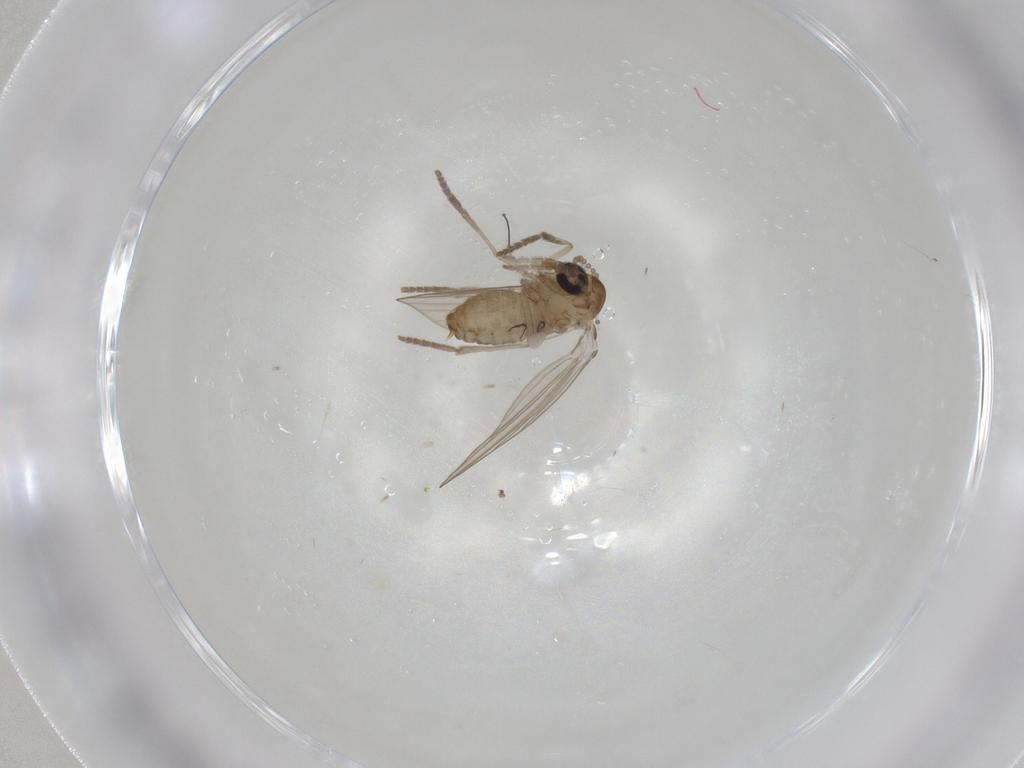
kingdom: Animalia
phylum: Arthropoda
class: Insecta
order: Diptera
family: Psychodidae
